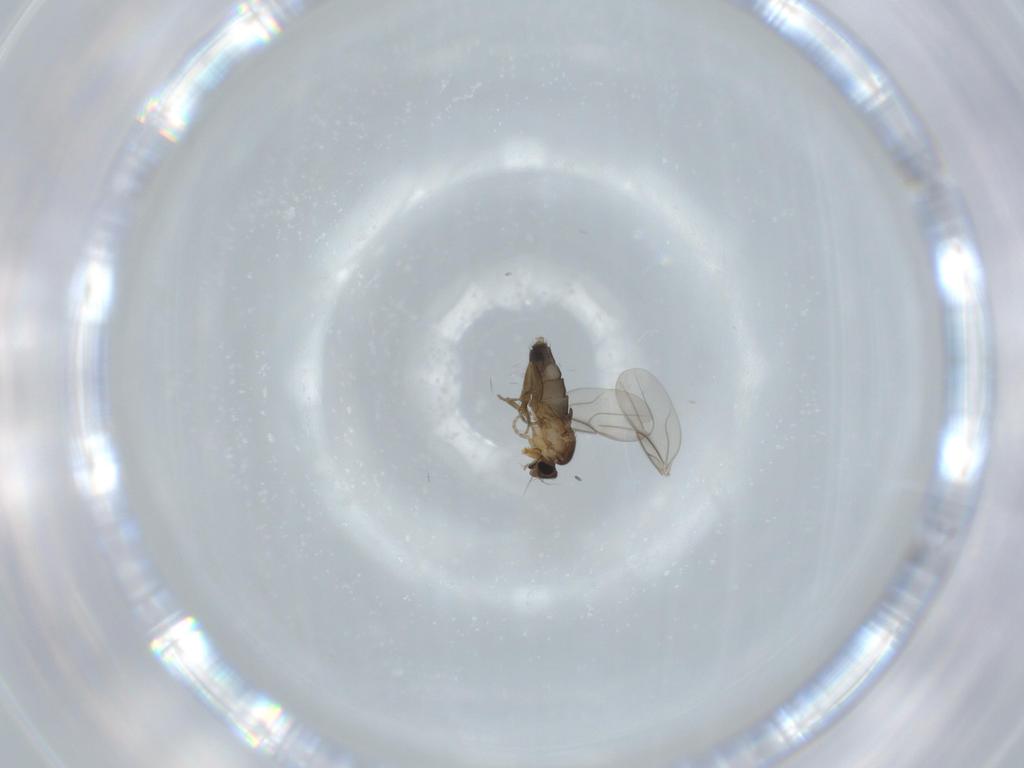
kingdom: Animalia
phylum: Arthropoda
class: Insecta
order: Diptera
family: Phoridae
